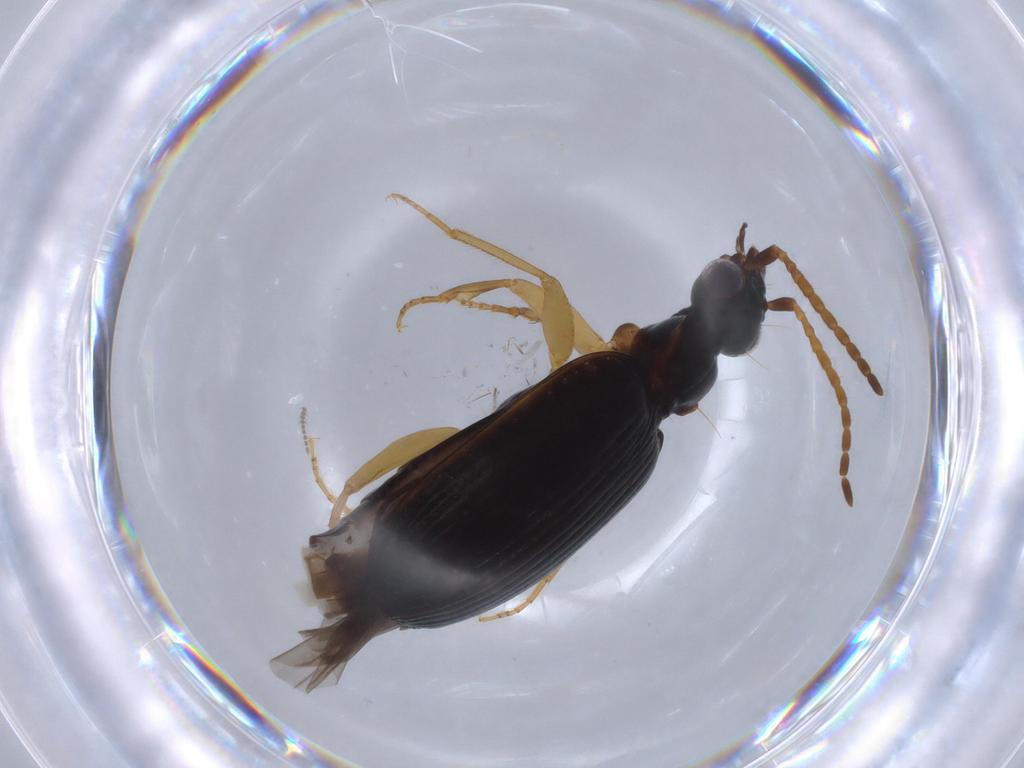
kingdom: Animalia
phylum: Arthropoda
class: Insecta
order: Coleoptera
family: Carabidae
